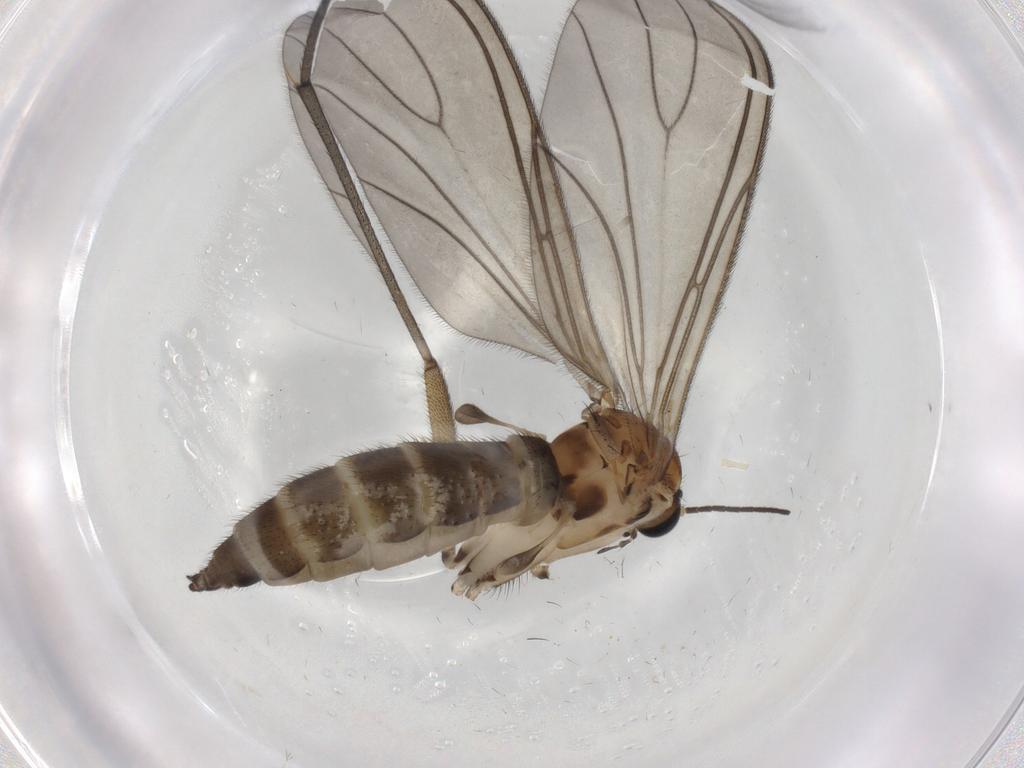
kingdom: Animalia
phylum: Arthropoda
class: Insecta
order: Diptera
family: Sciaridae
